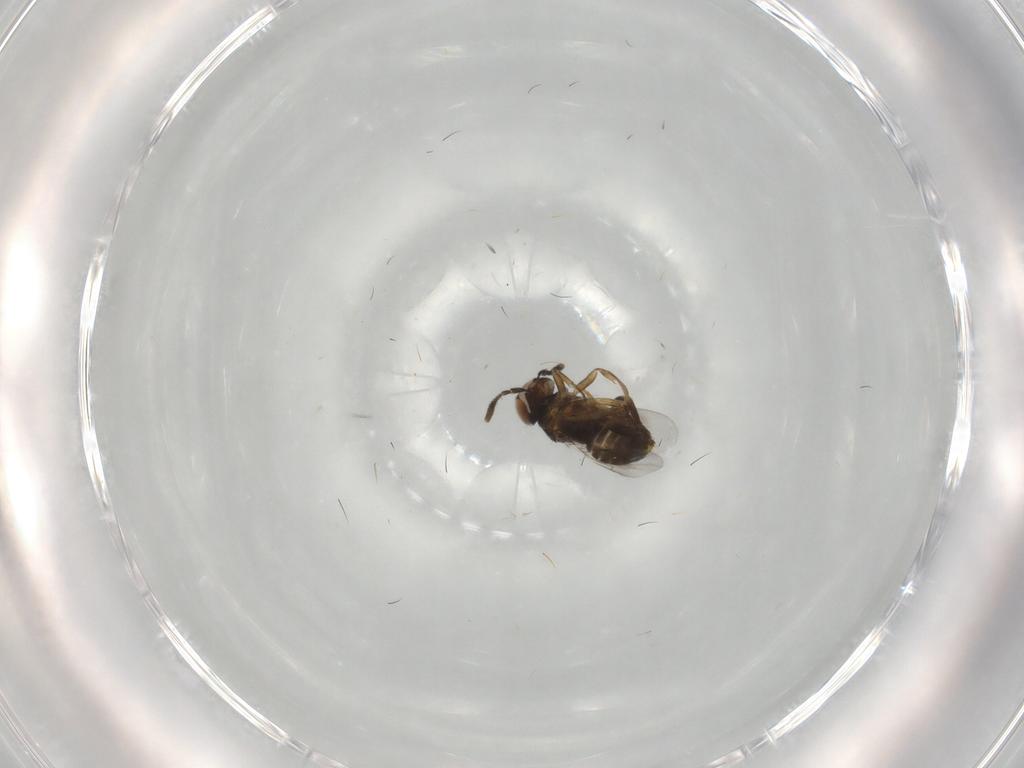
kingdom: Animalia
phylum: Arthropoda
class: Insecta
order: Hymenoptera
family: Encyrtidae
